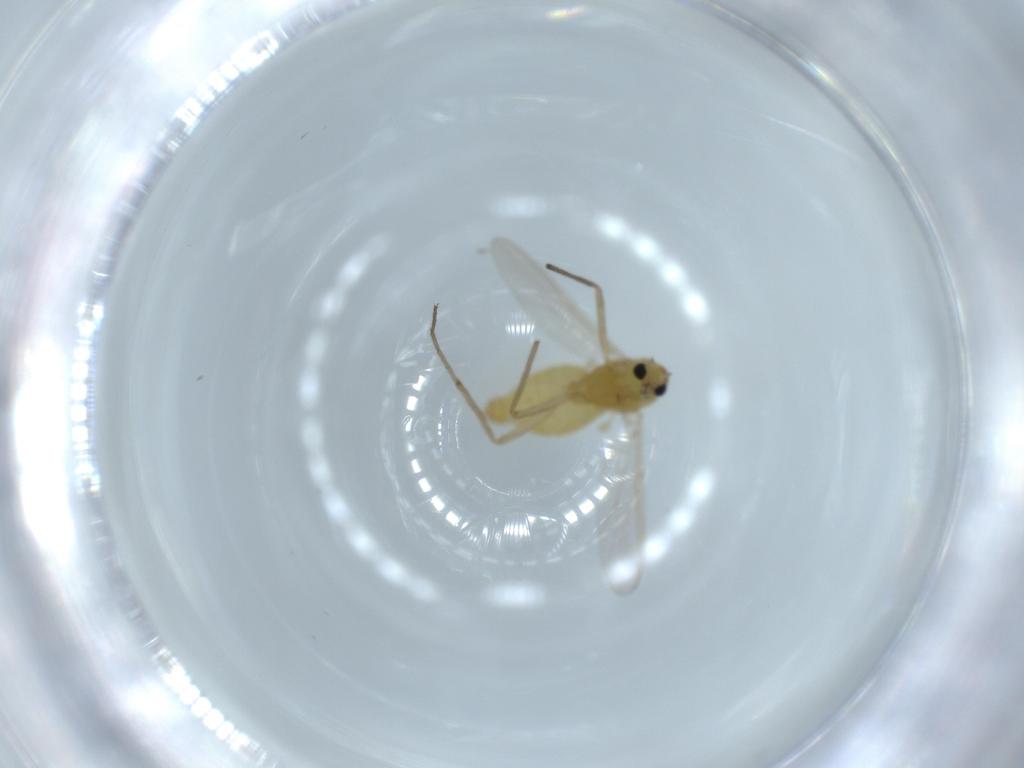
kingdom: Animalia
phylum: Arthropoda
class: Insecta
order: Diptera
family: Chironomidae
